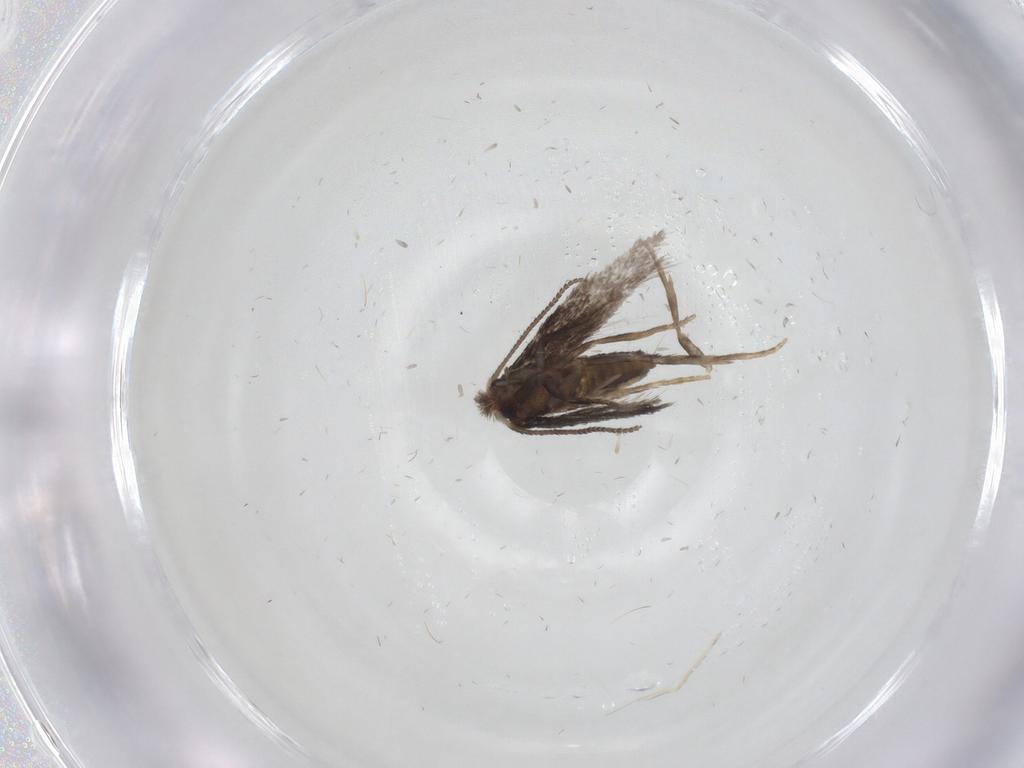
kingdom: Animalia
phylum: Arthropoda
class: Insecta
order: Lepidoptera
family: Nepticulidae
